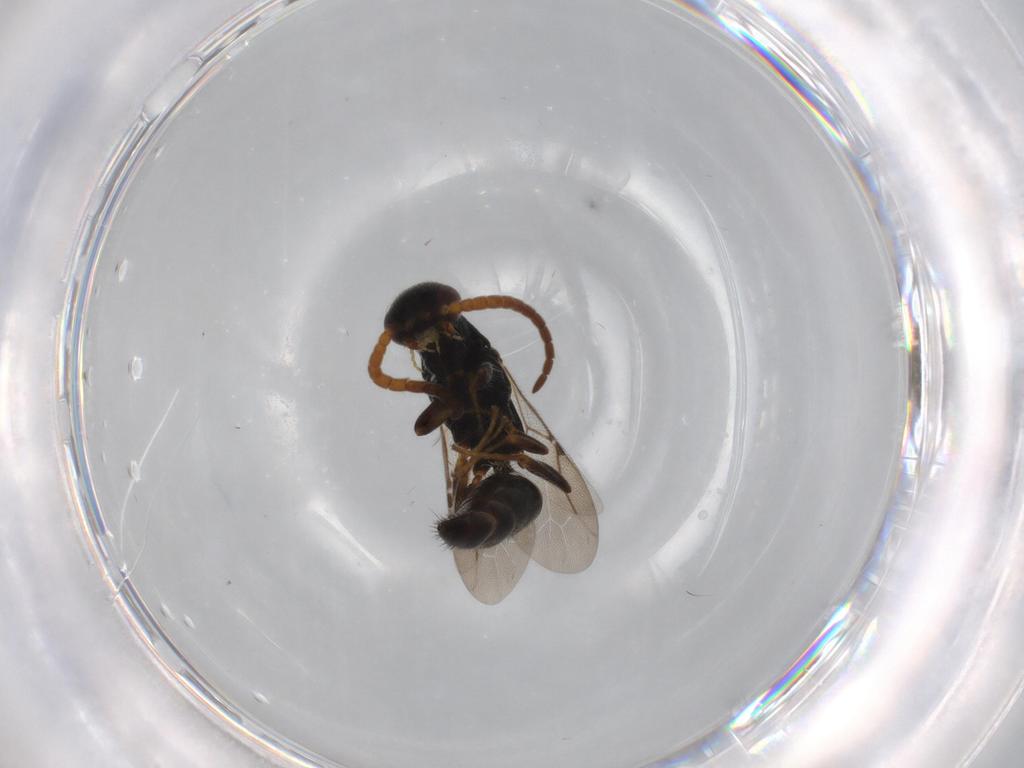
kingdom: Animalia
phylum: Arthropoda
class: Insecta
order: Hymenoptera
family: Bethylidae
